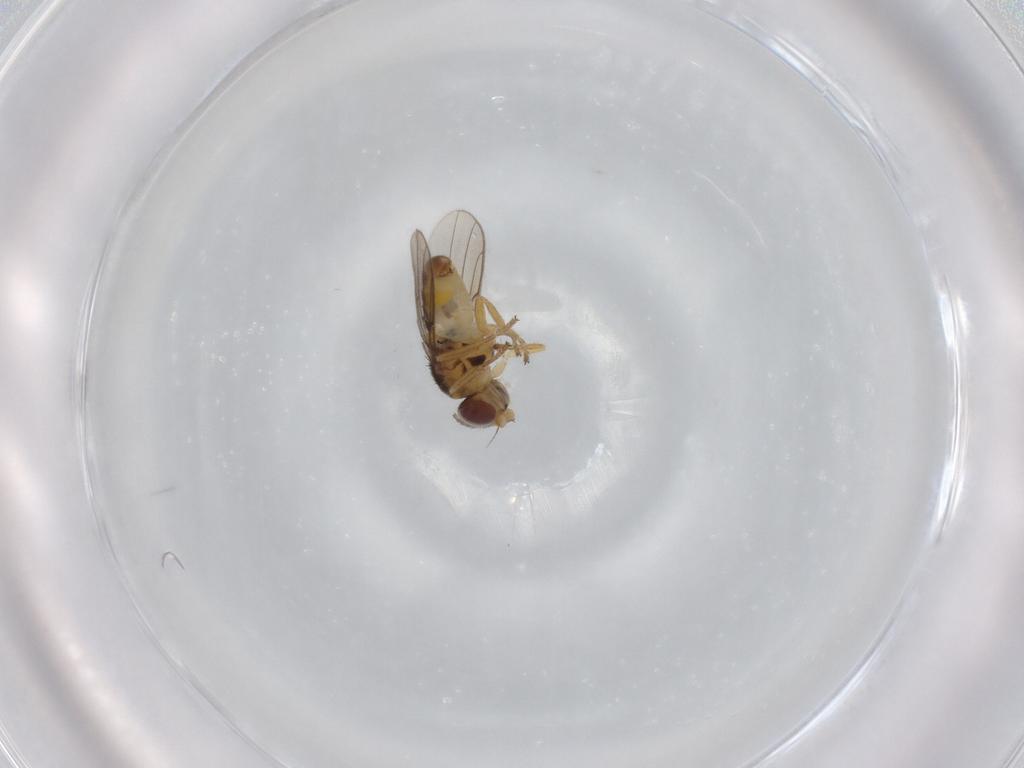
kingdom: Animalia
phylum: Arthropoda
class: Insecta
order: Diptera
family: Chloropidae
